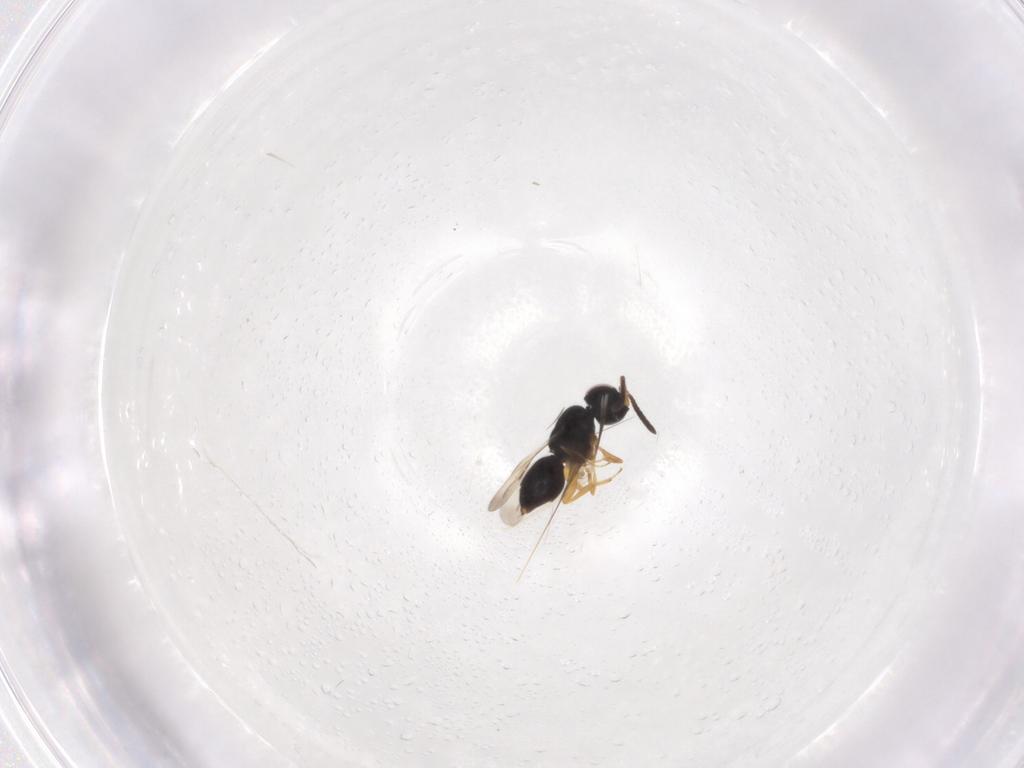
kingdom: Animalia
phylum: Arthropoda
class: Insecta
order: Hymenoptera
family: Ceraphronidae
